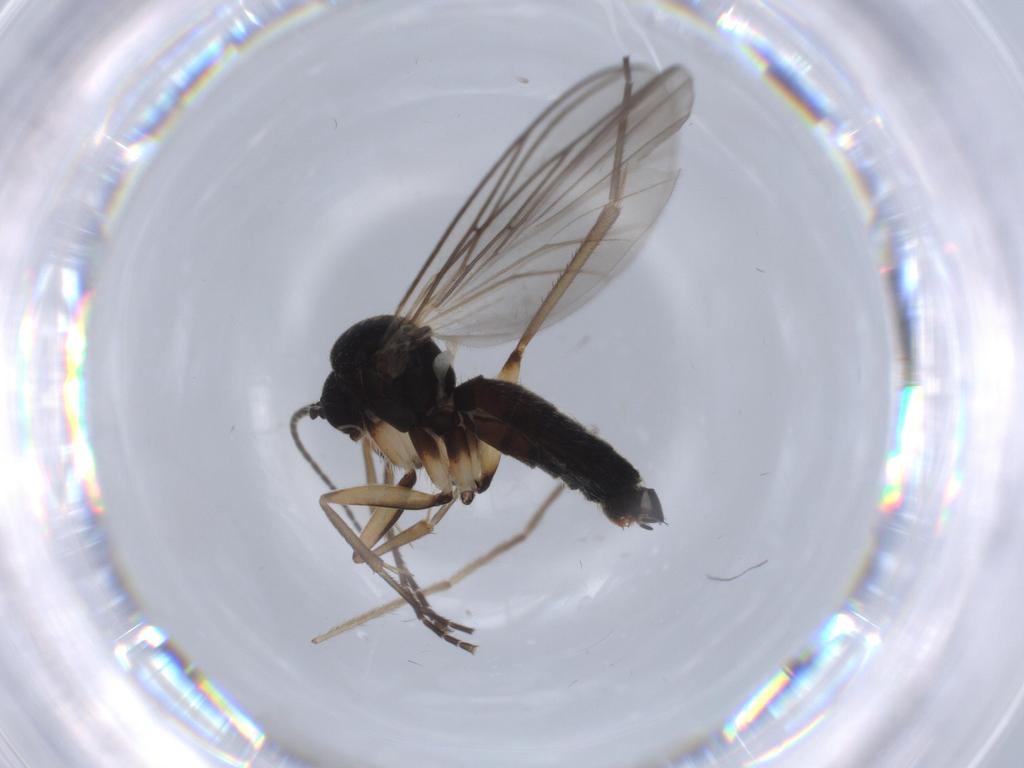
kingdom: Animalia
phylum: Arthropoda
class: Insecta
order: Diptera
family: Mycetophilidae
